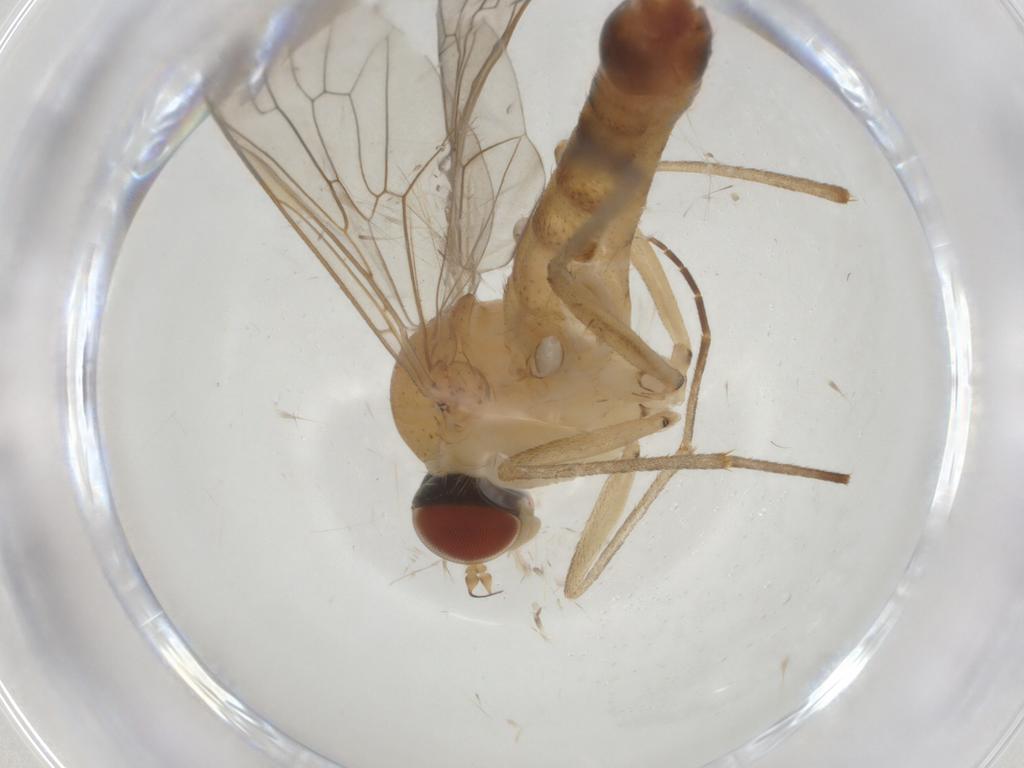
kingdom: Animalia
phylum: Arthropoda
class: Insecta
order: Diptera
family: Apsilocephalidae
